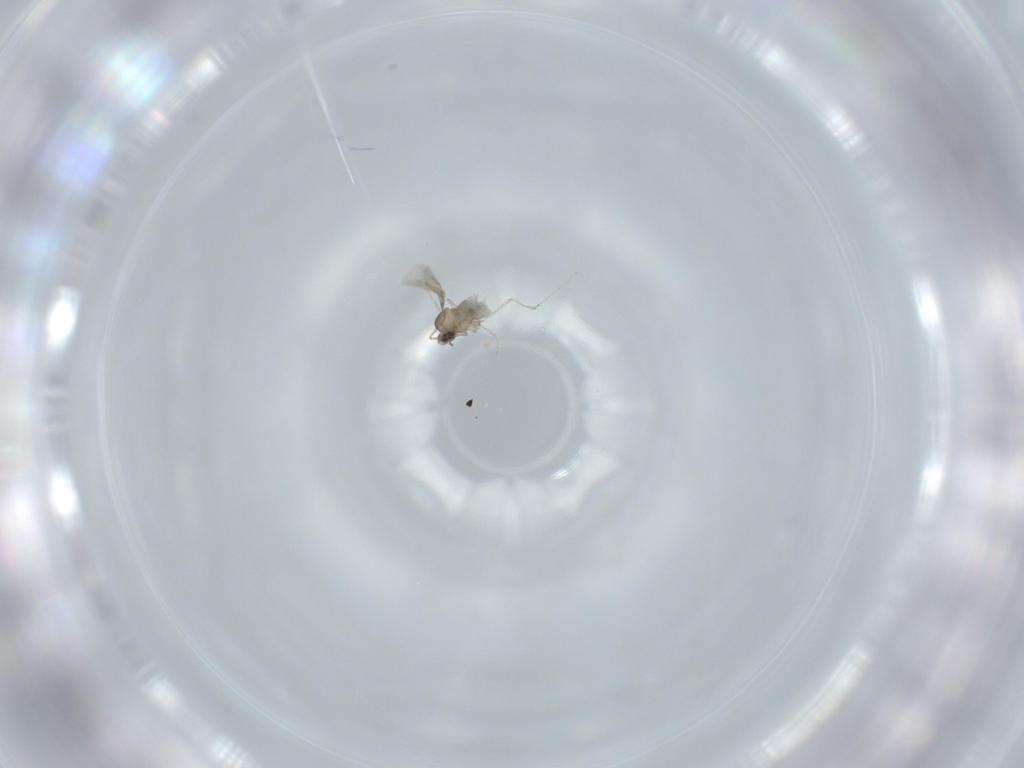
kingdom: Animalia
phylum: Arthropoda
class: Insecta
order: Diptera
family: Cecidomyiidae
